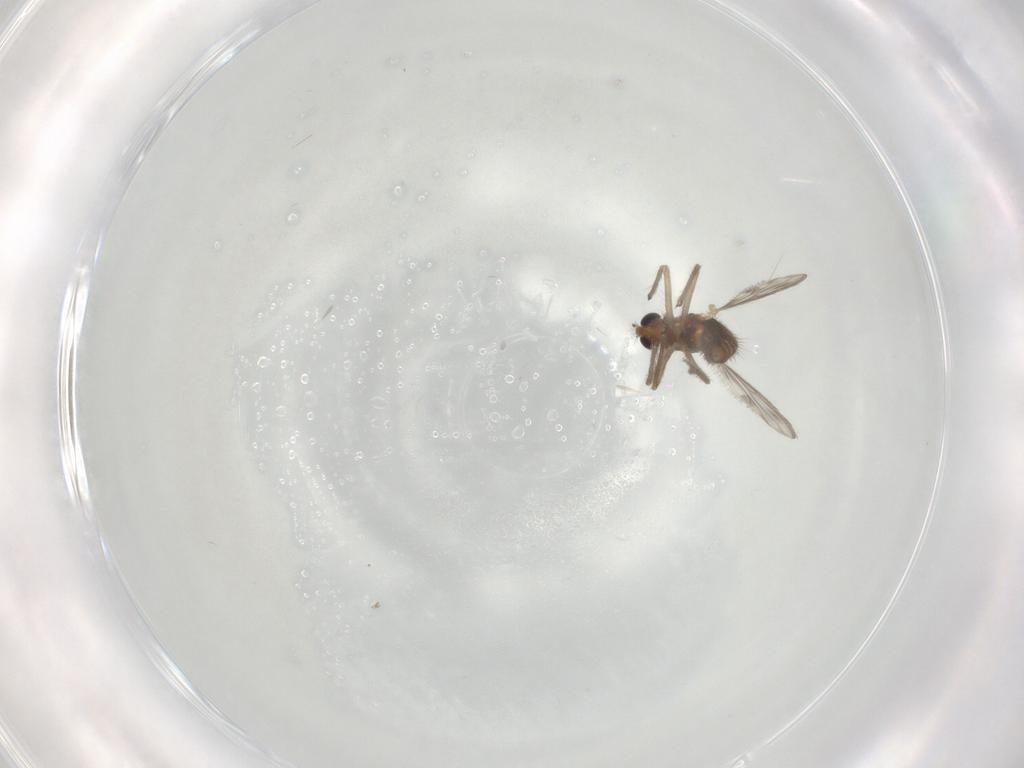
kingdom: Animalia
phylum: Arthropoda
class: Insecta
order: Diptera
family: Chironomidae
